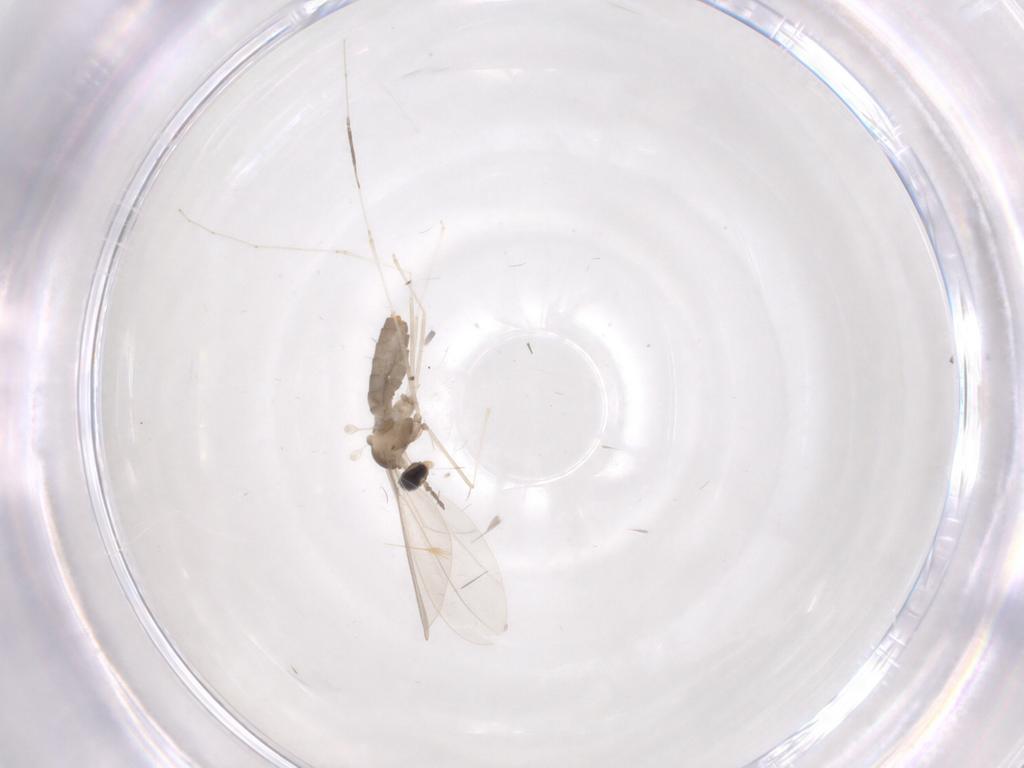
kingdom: Animalia
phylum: Arthropoda
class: Insecta
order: Diptera
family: Cecidomyiidae
